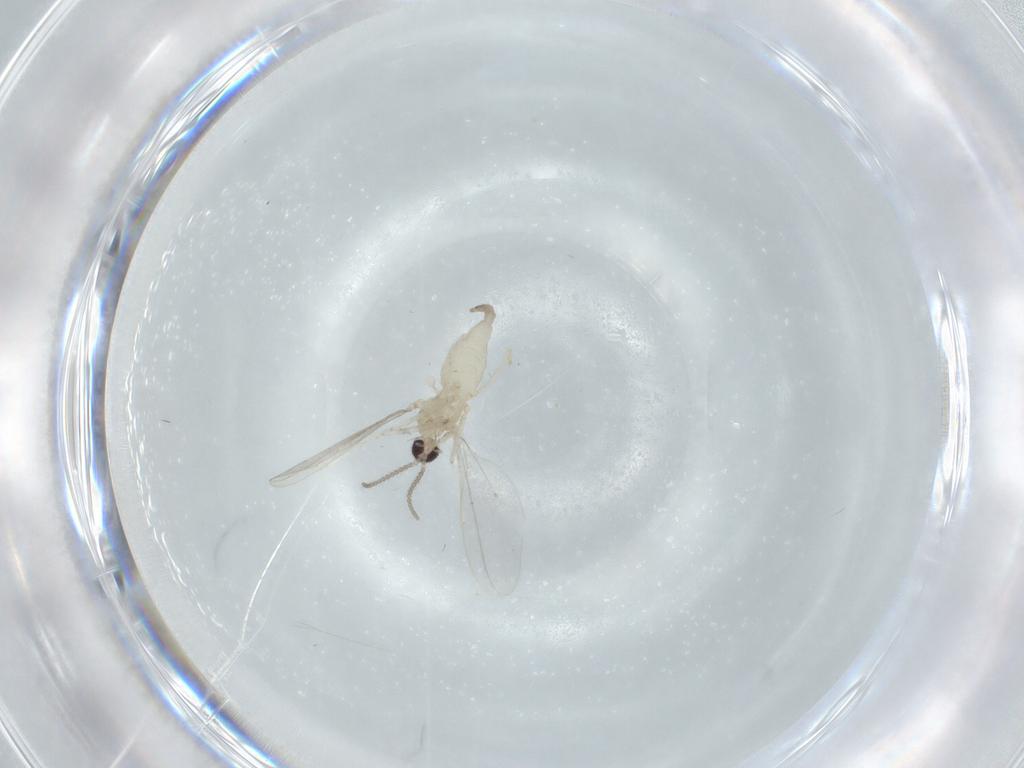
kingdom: Animalia
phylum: Arthropoda
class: Insecta
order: Diptera
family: Cecidomyiidae
